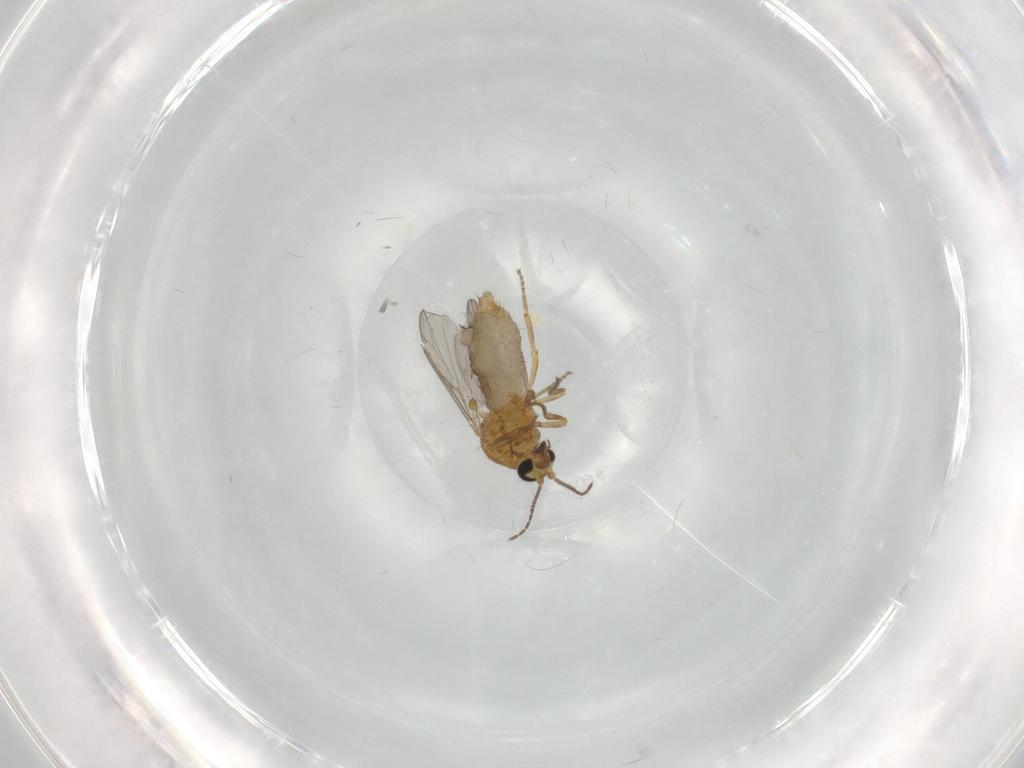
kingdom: Animalia
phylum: Arthropoda
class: Insecta
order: Diptera
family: Ceratopogonidae
